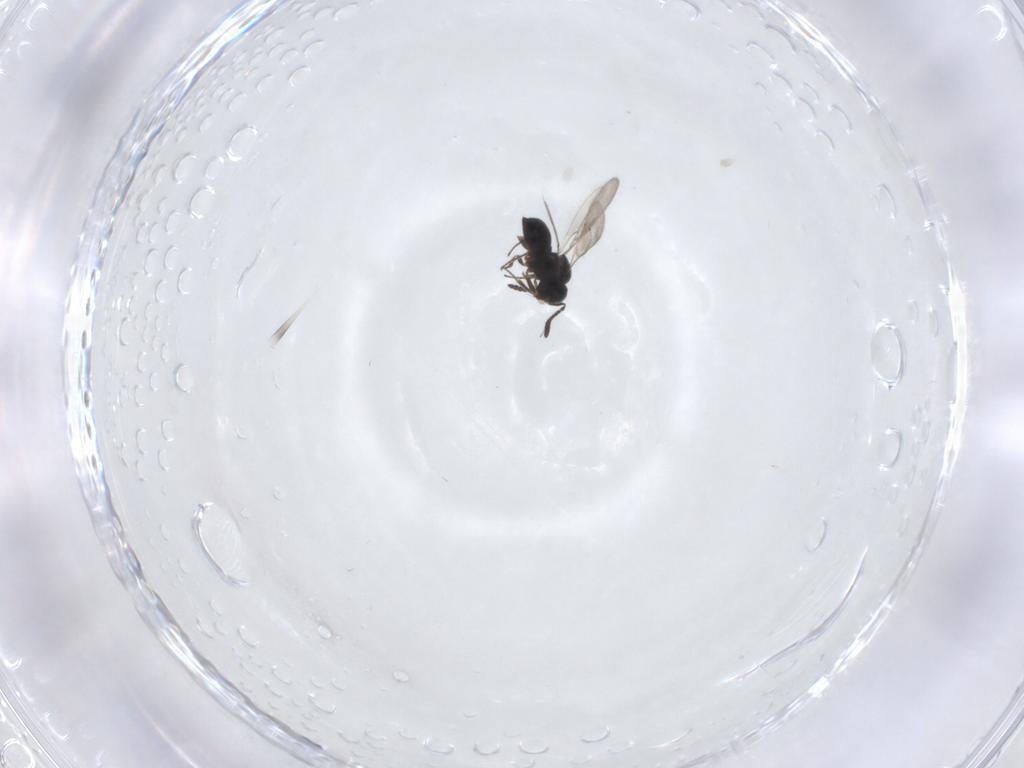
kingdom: Animalia
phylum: Arthropoda
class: Insecta
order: Hymenoptera
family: Scelionidae
